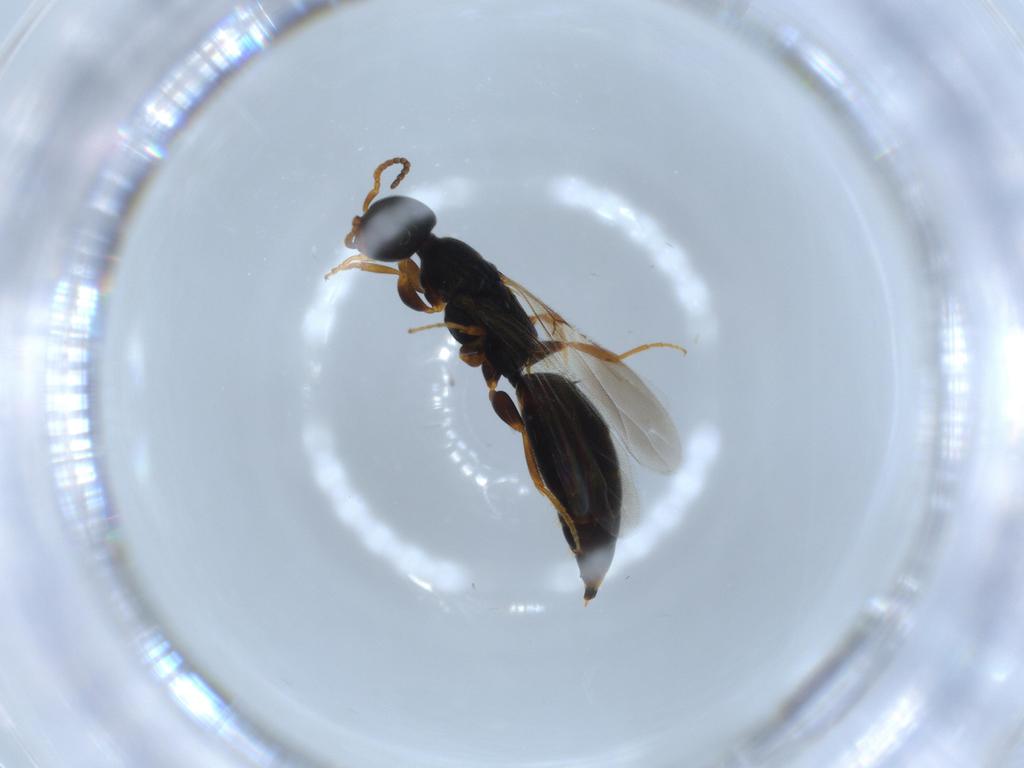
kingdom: Animalia
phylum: Arthropoda
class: Insecta
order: Hymenoptera
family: Bethylidae
